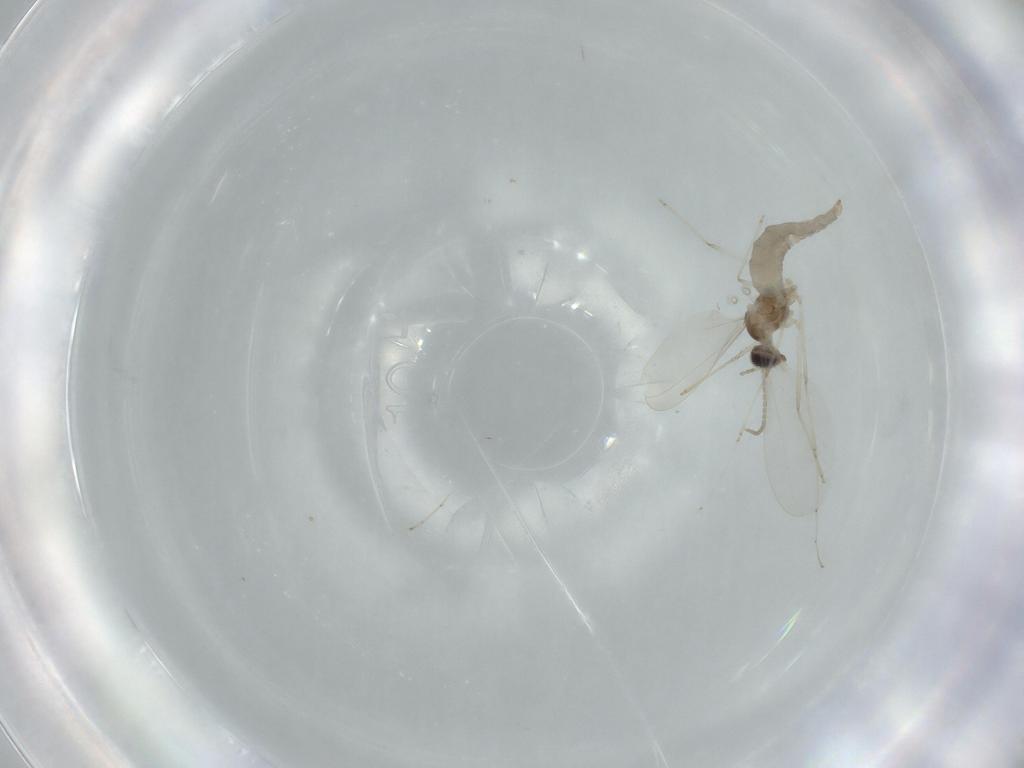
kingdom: Animalia
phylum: Arthropoda
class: Insecta
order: Diptera
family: Cecidomyiidae
